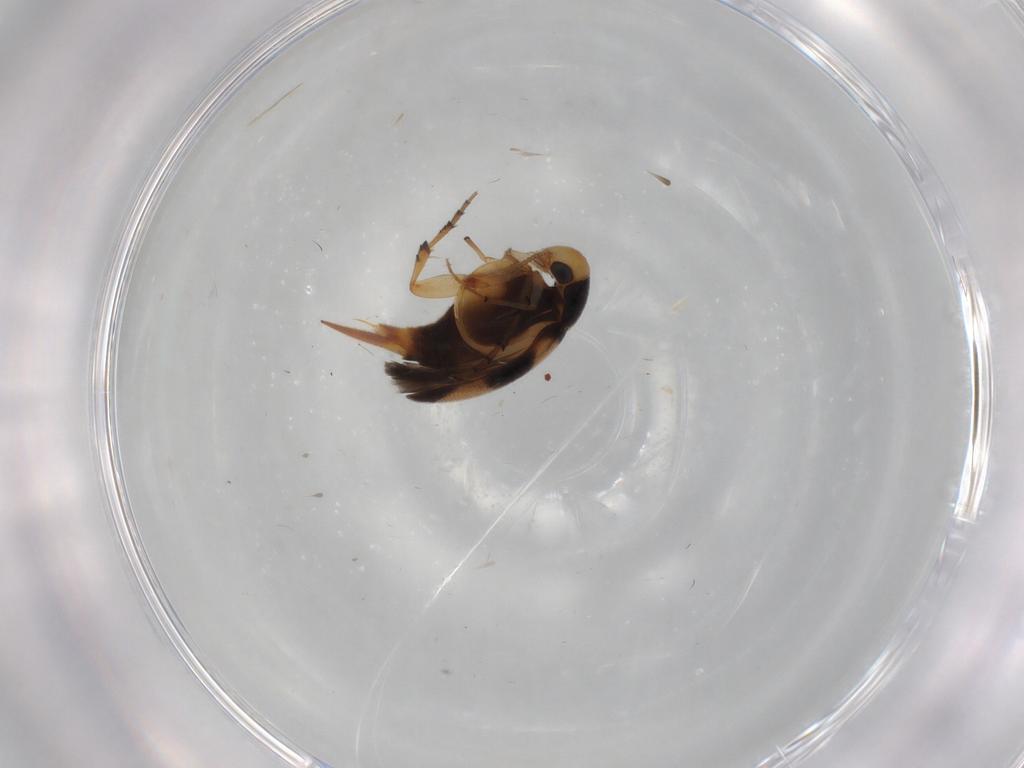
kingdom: Animalia
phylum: Arthropoda
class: Insecta
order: Coleoptera
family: Mordellidae
